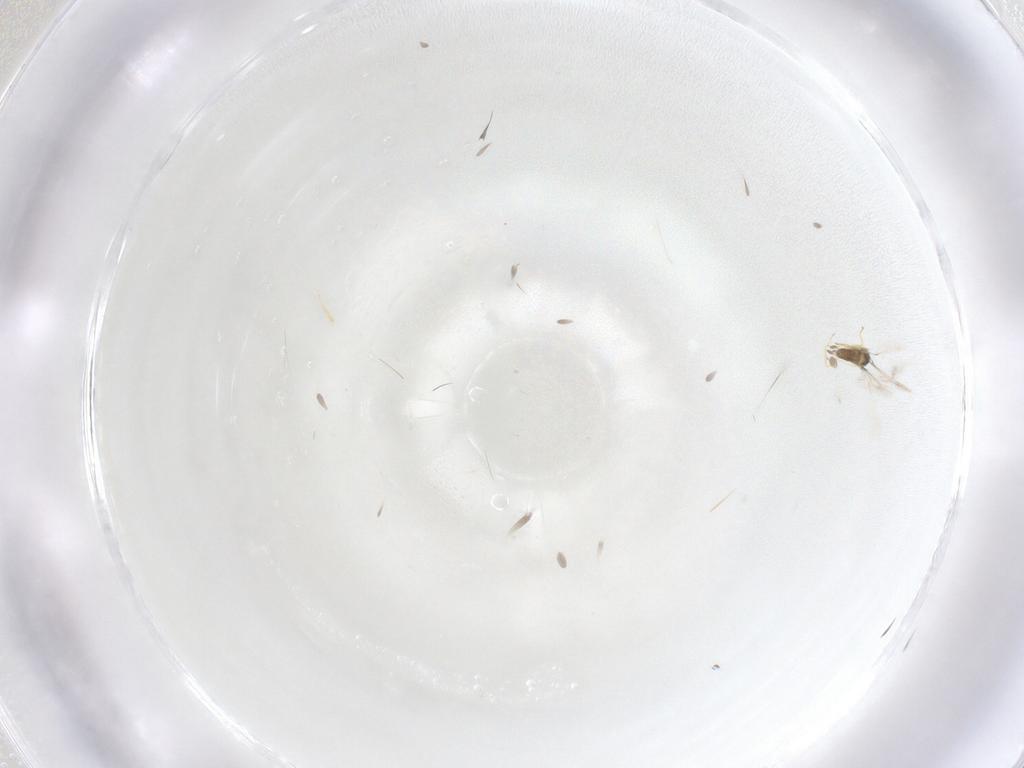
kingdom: Animalia
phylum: Arthropoda
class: Insecta
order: Hymenoptera
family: Mymaridae
